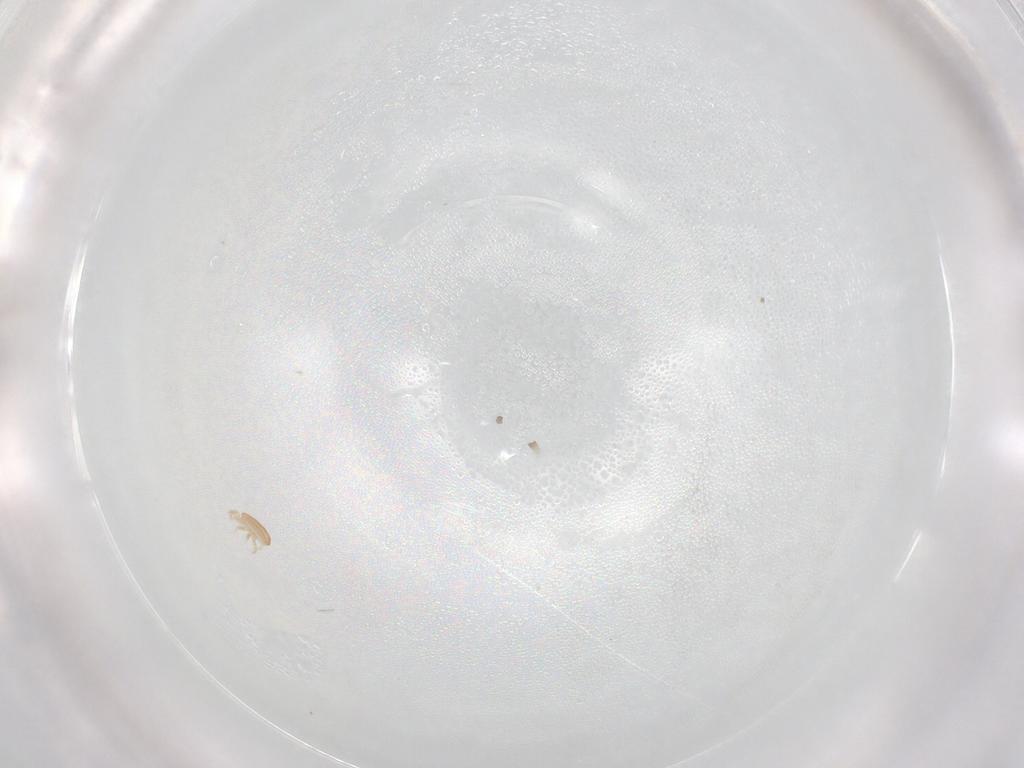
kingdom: Animalia
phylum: Arthropoda
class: Arachnida
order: Mesostigmata
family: Ascidae
